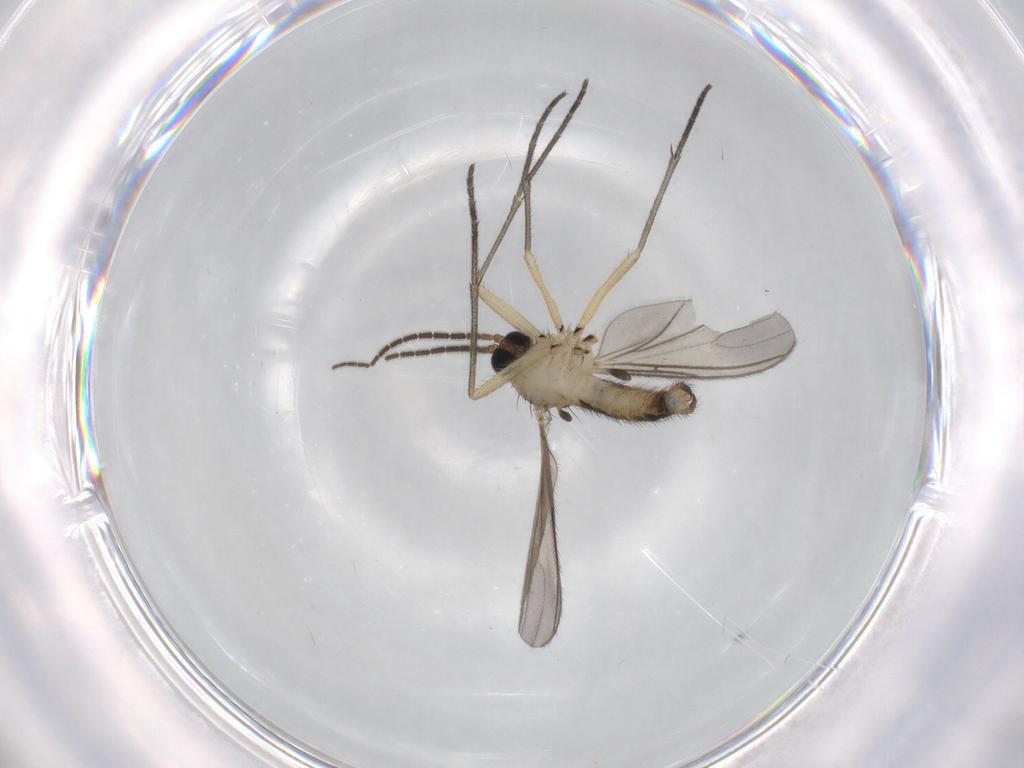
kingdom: Animalia
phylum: Arthropoda
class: Insecta
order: Diptera
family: Sciaridae
